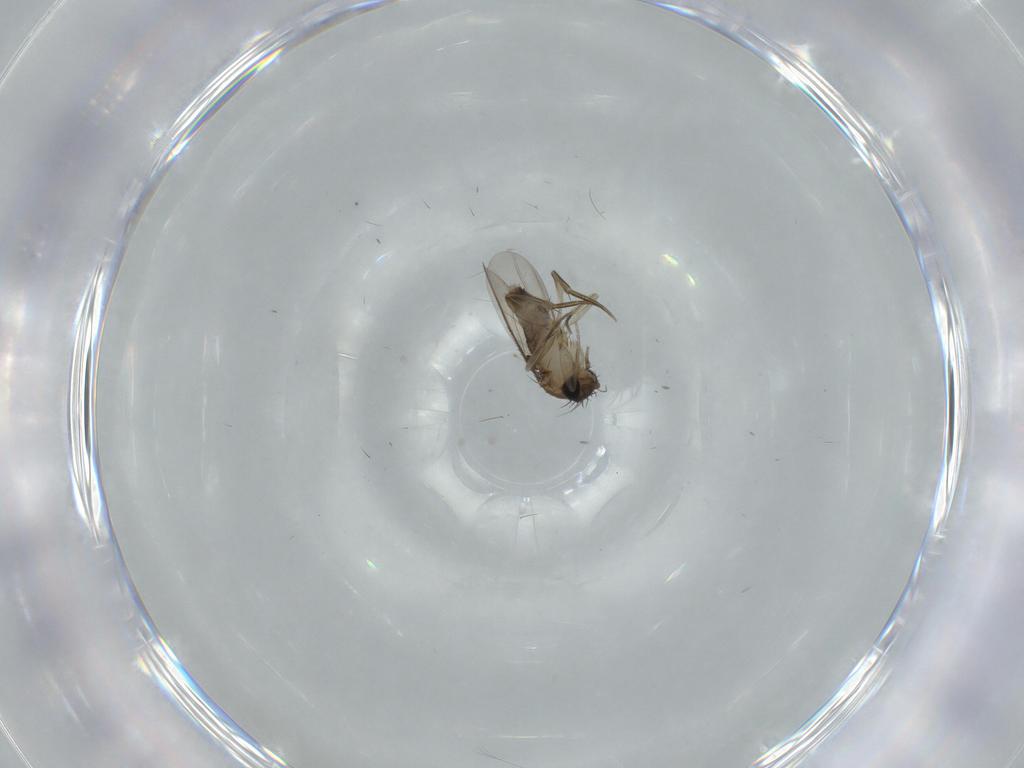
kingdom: Animalia
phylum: Arthropoda
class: Insecta
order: Diptera
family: Phoridae
